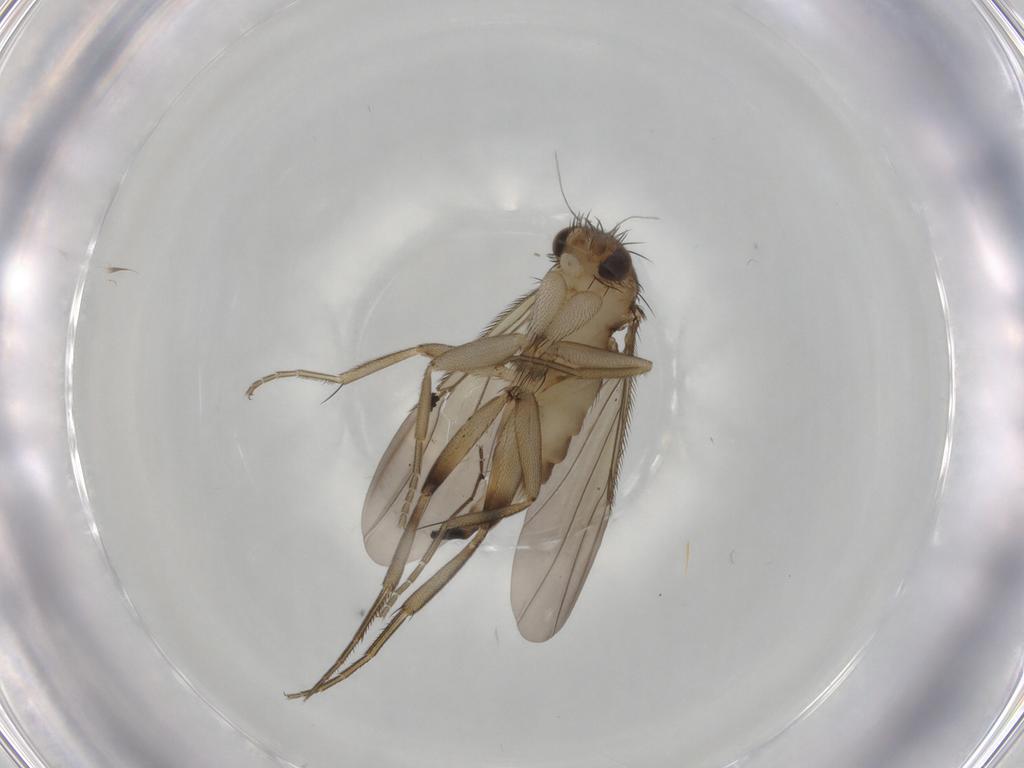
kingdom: Animalia
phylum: Arthropoda
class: Insecta
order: Diptera
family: Phoridae
